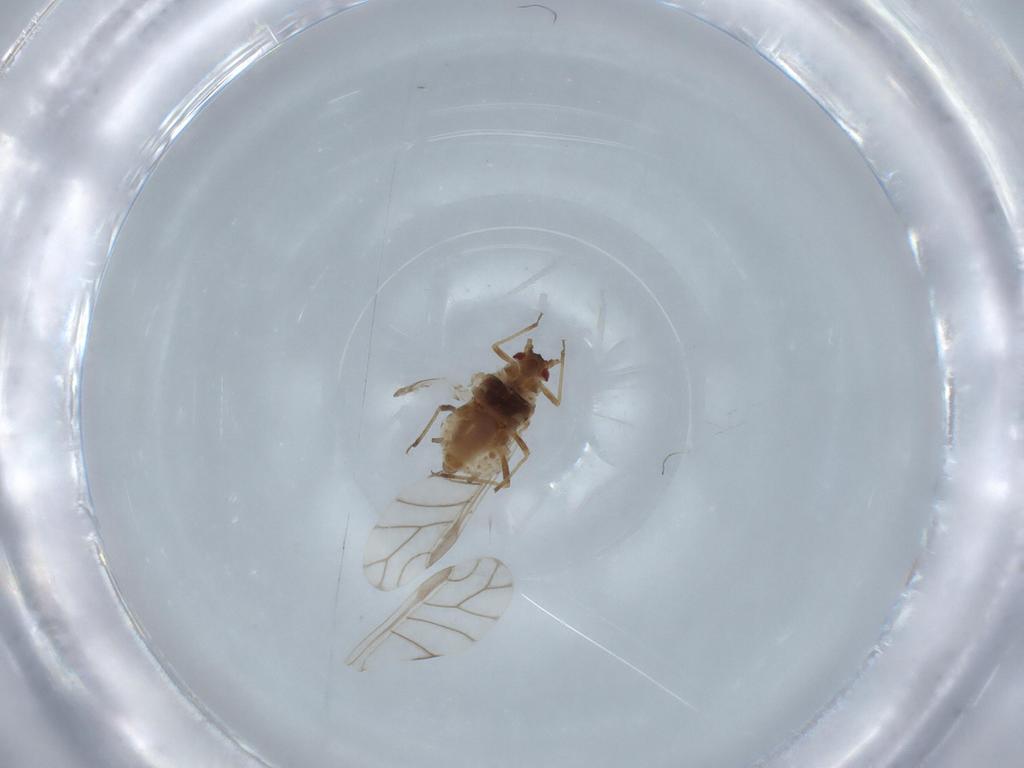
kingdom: Animalia
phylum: Arthropoda
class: Insecta
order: Hemiptera
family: Aphididae
